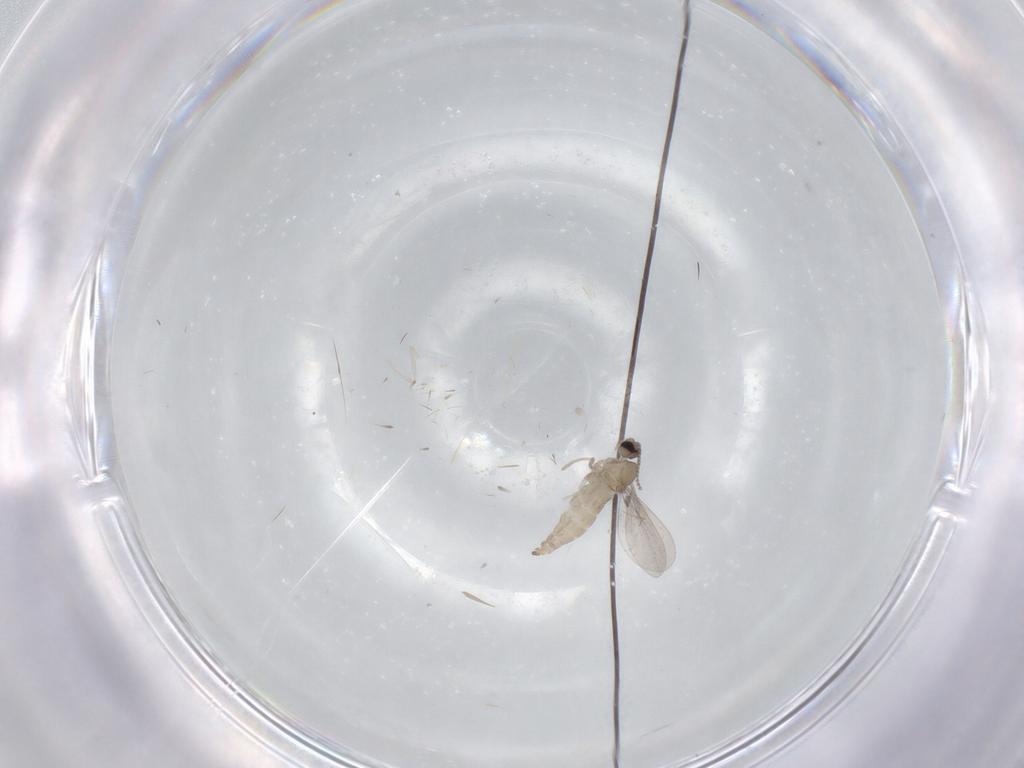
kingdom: Animalia
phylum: Arthropoda
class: Insecta
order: Diptera
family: Cecidomyiidae
